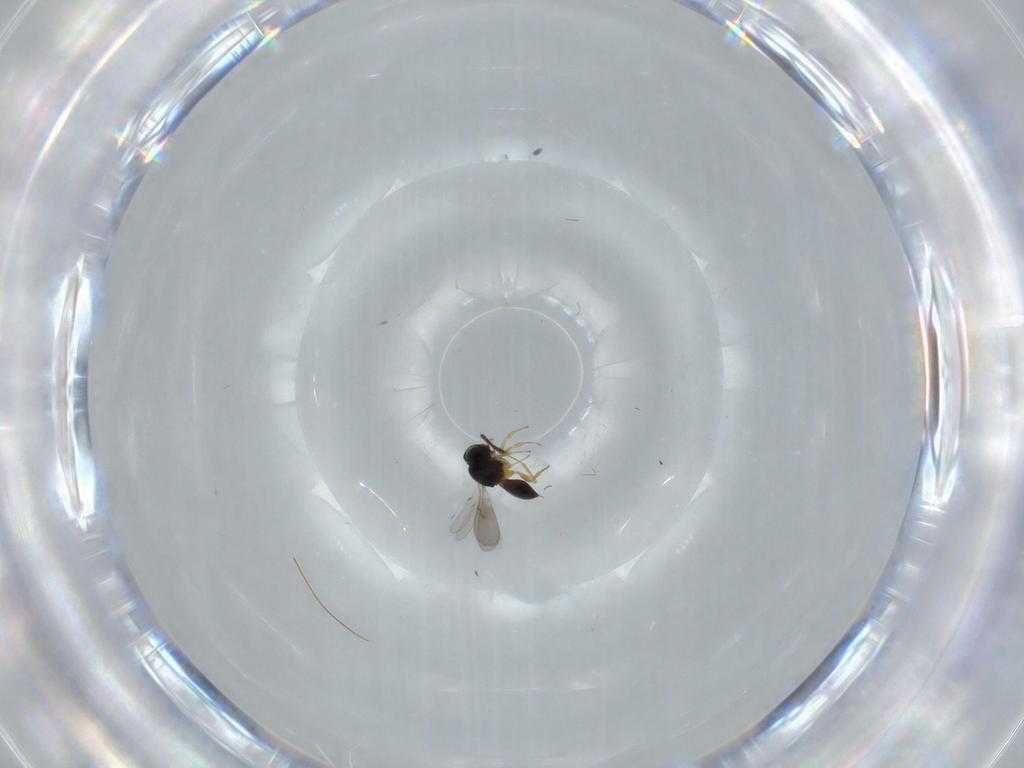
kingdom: Animalia
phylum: Arthropoda
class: Insecta
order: Hymenoptera
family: Scelionidae
